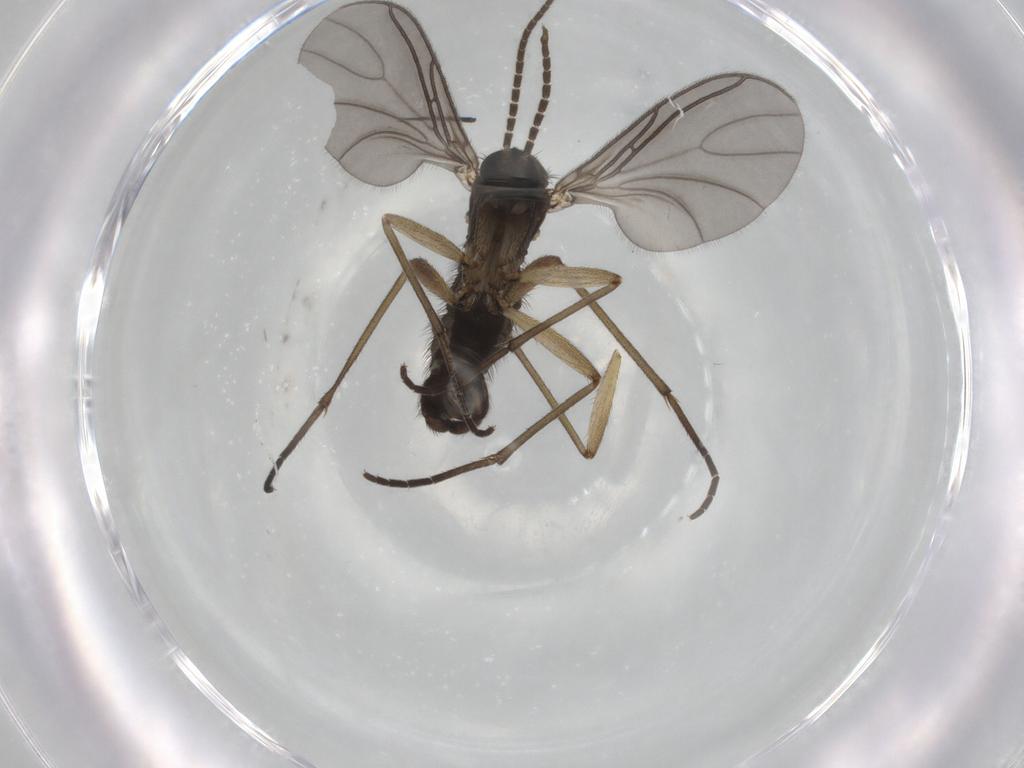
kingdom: Animalia
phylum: Arthropoda
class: Insecta
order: Diptera
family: Sciaridae
